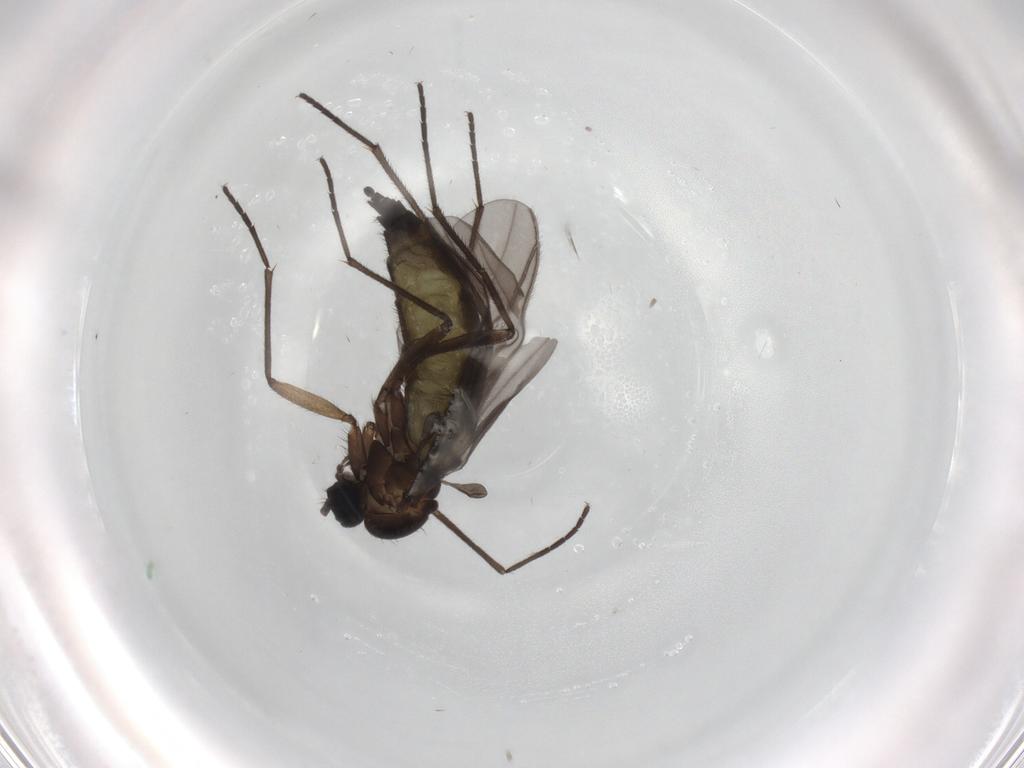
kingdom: Animalia
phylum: Arthropoda
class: Insecta
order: Diptera
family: Sciaridae
